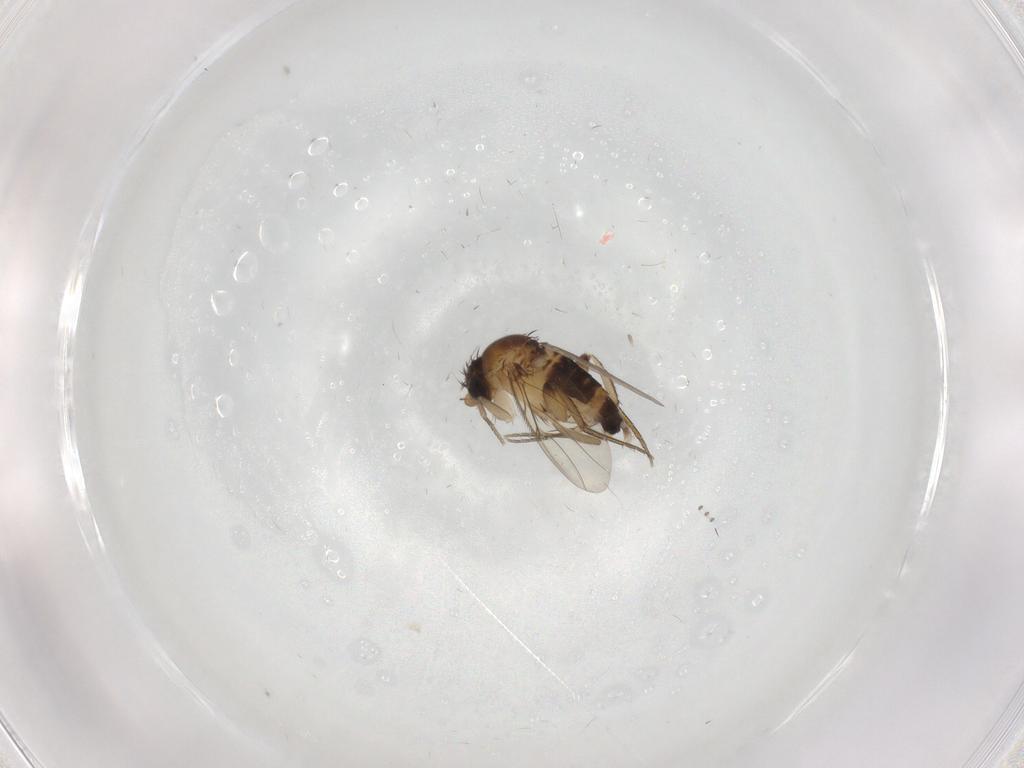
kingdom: Animalia
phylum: Arthropoda
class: Insecta
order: Diptera
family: Phoridae
